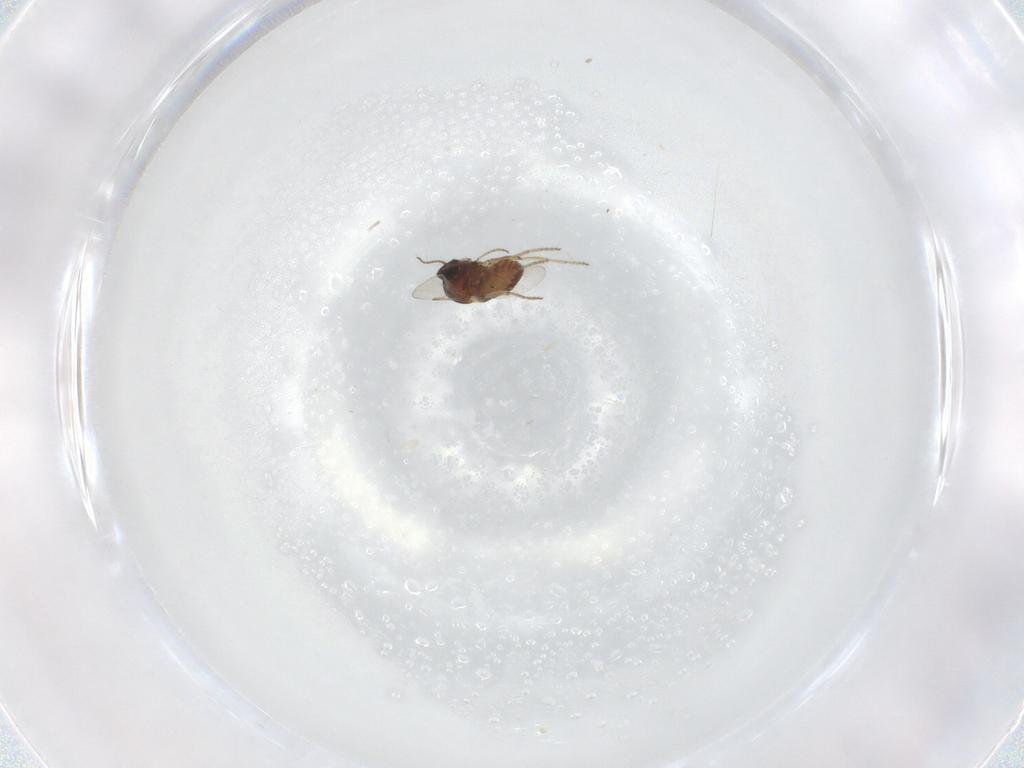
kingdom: Animalia
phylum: Arthropoda
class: Insecta
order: Diptera
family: Ceratopogonidae
